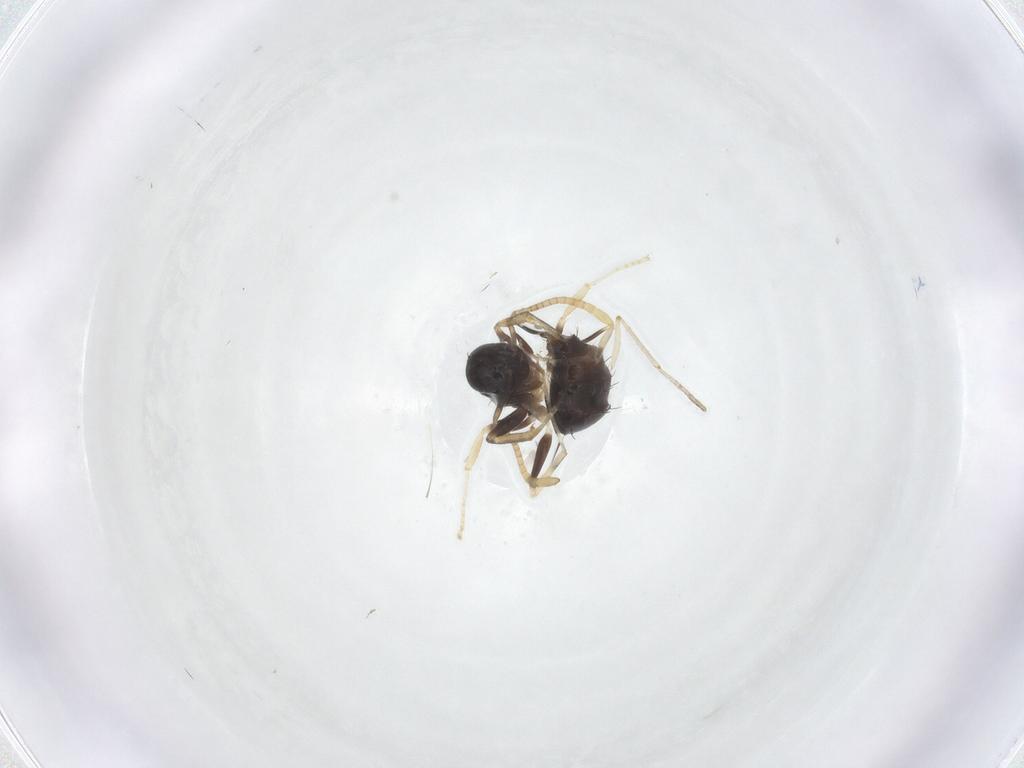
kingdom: Animalia
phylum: Arthropoda
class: Insecta
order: Hymenoptera
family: Formicidae
